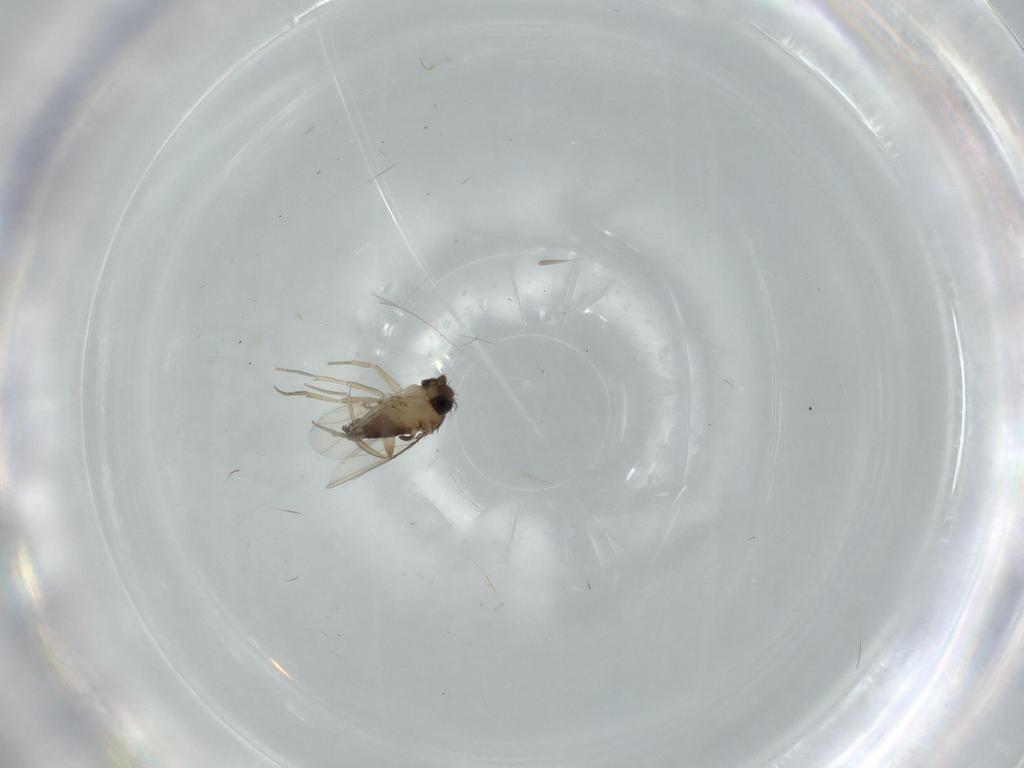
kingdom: Animalia
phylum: Arthropoda
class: Insecta
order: Diptera
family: Phoridae
